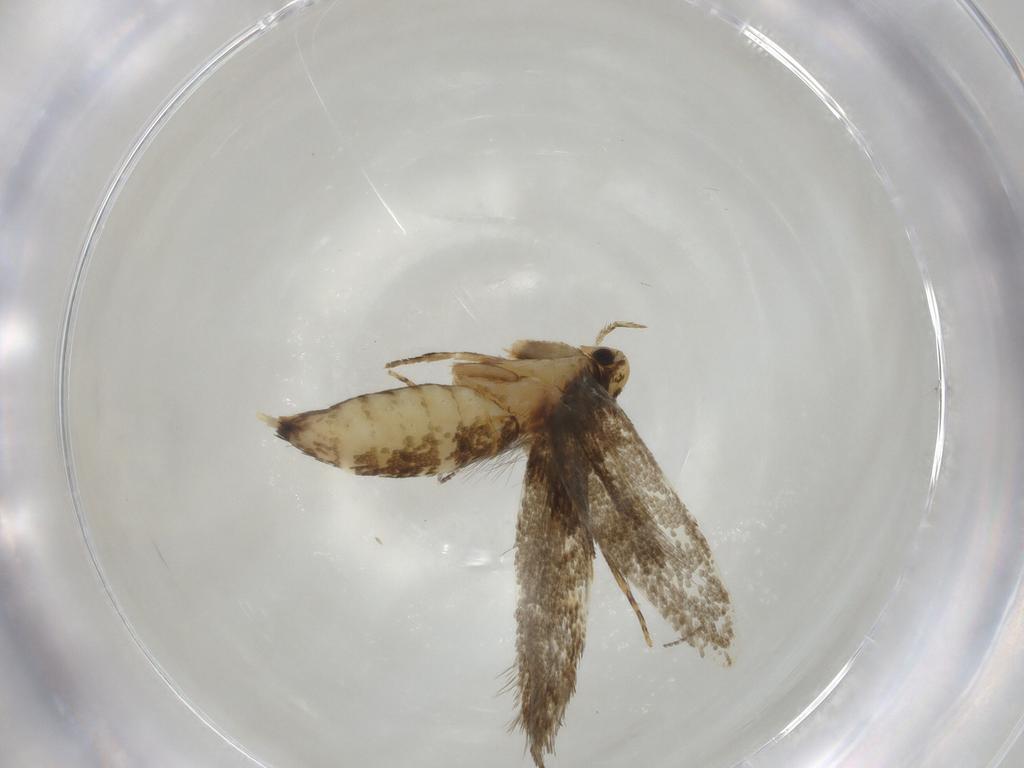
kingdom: Animalia
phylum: Arthropoda
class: Insecta
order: Lepidoptera
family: Tineidae
